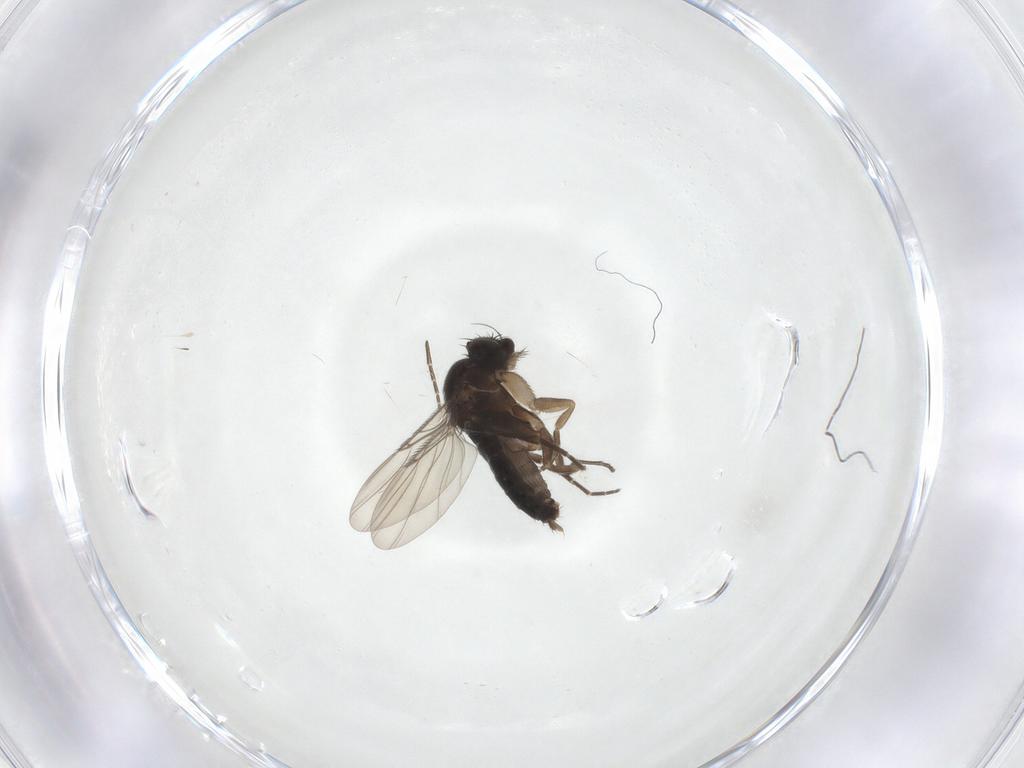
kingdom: Animalia
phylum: Arthropoda
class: Insecta
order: Diptera
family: Phoridae
